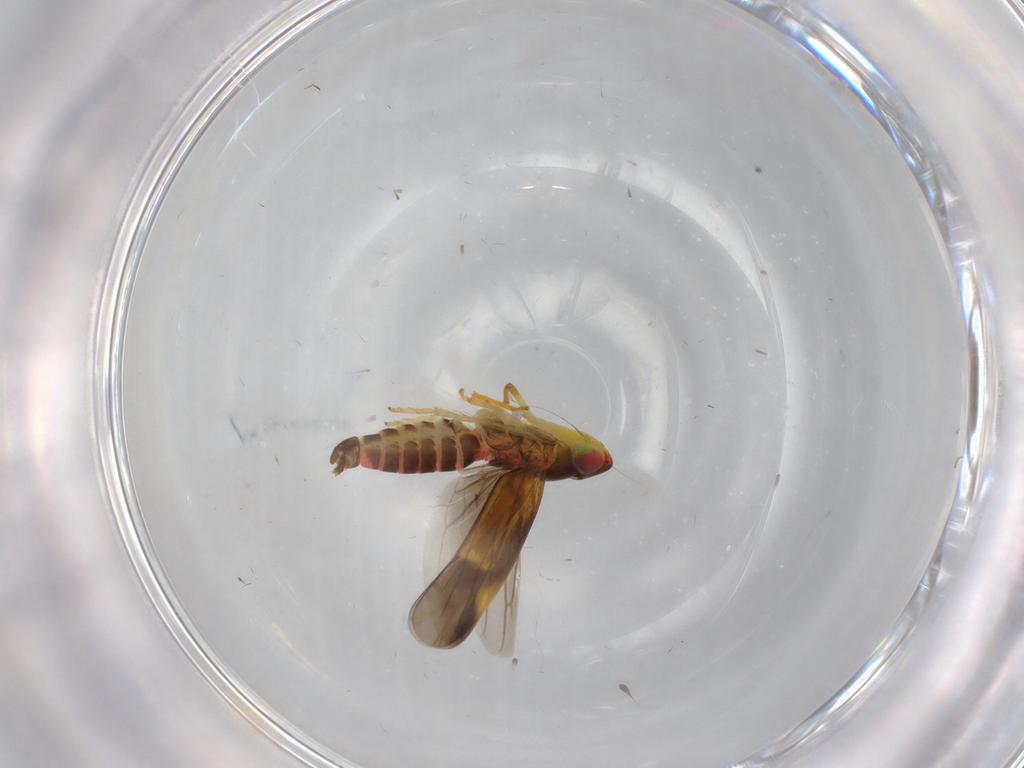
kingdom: Animalia
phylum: Arthropoda
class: Insecta
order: Hemiptera
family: Cicadellidae
